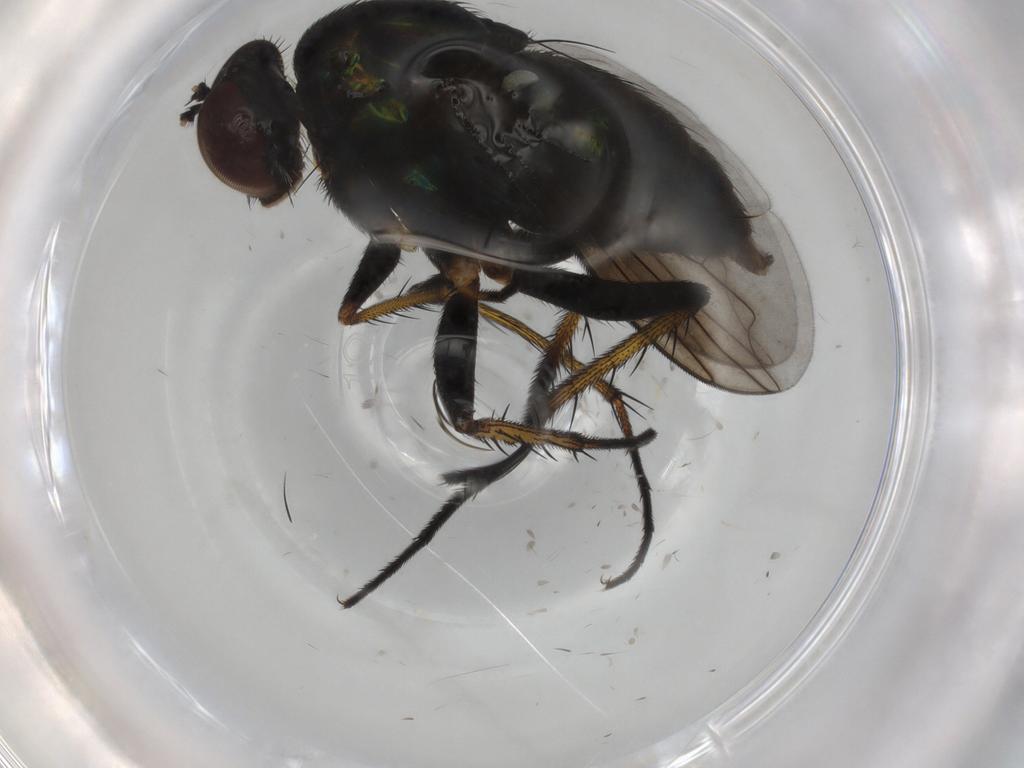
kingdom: Animalia
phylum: Arthropoda
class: Insecta
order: Diptera
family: Dolichopodidae
